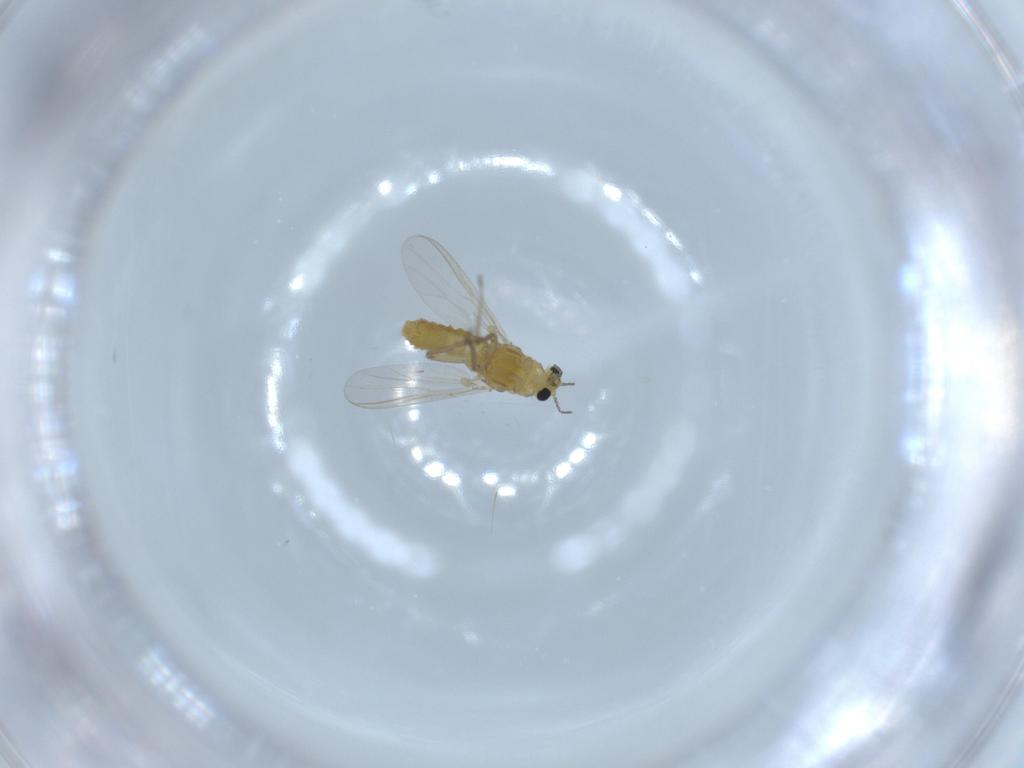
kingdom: Animalia
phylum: Arthropoda
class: Insecta
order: Diptera
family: Chironomidae
